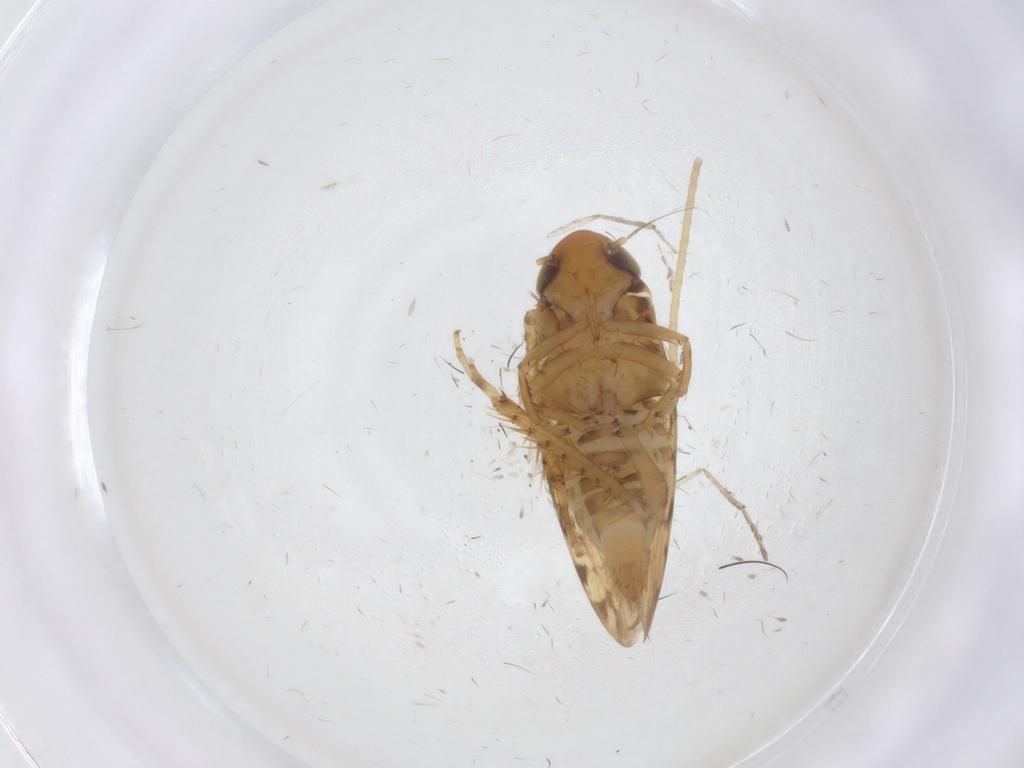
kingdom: Animalia
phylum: Arthropoda
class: Insecta
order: Hemiptera
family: Cicadellidae
